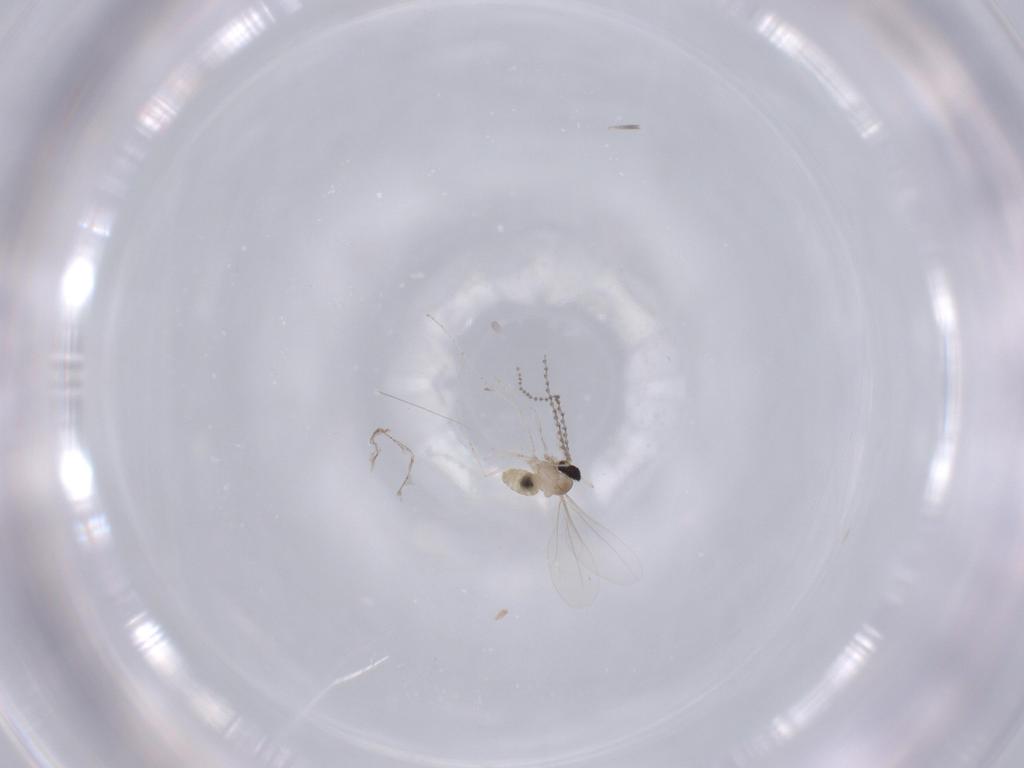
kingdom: Animalia
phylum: Arthropoda
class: Insecta
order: Diptera
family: Cecidomyiidae
